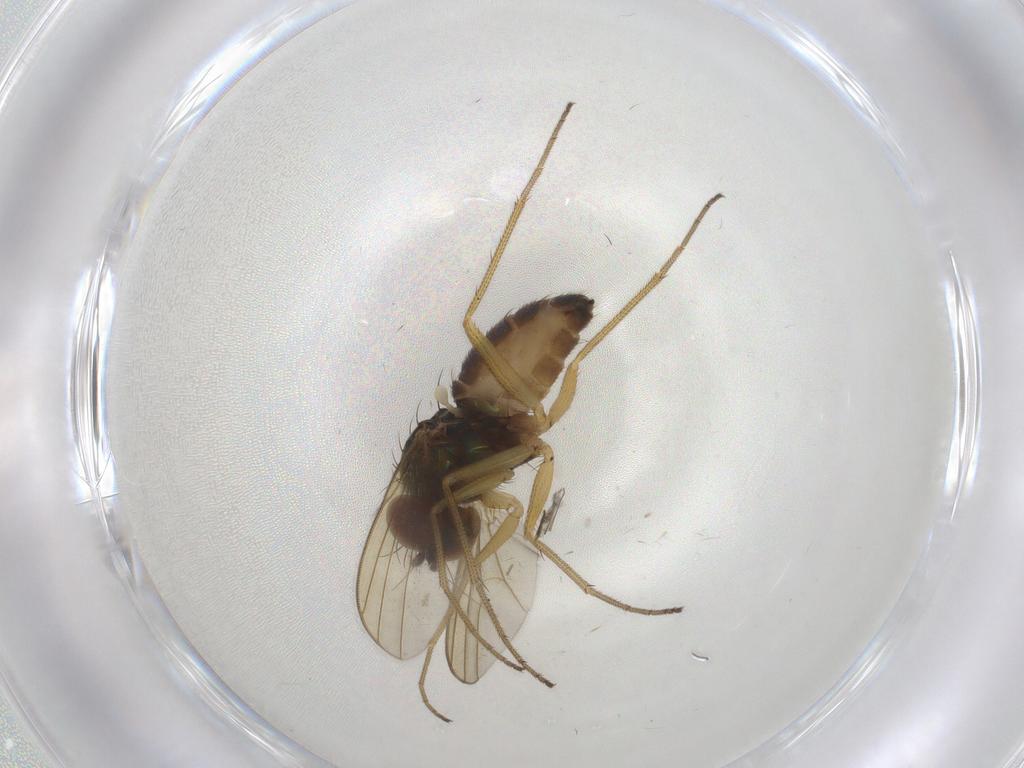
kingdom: Animalia
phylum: Arthropoda
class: Insecta
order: Diptera
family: Dolichopodidae
